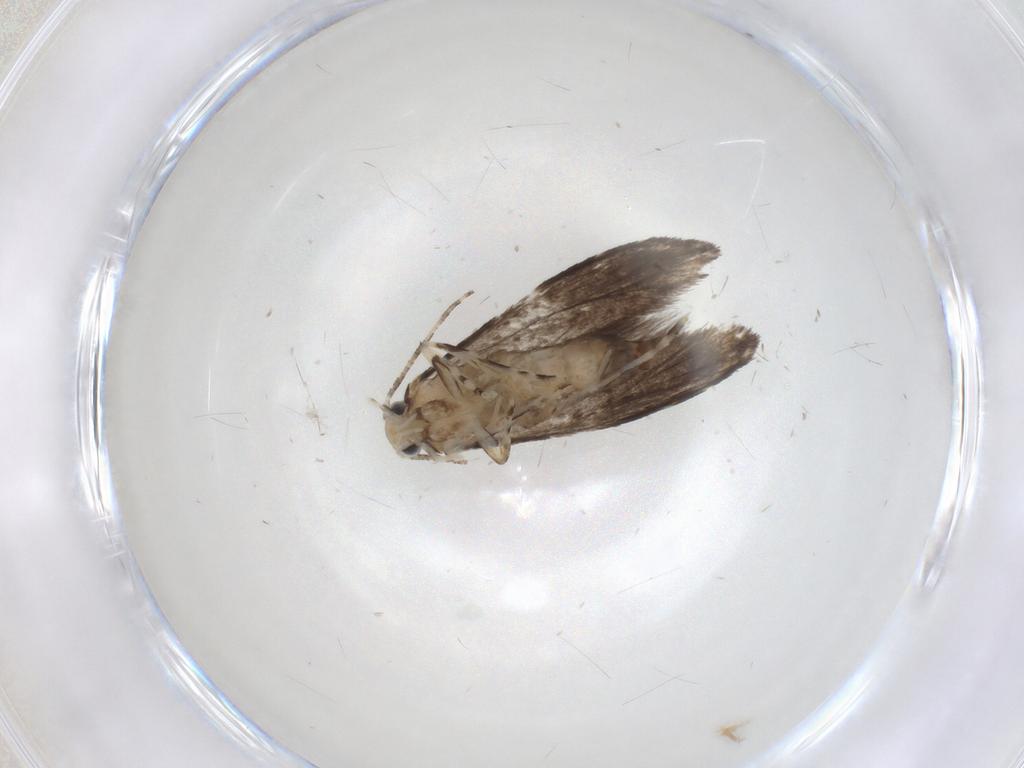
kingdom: Animalia
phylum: Arthropoda
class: Insecta
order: Lepidoptera
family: Tineidae
